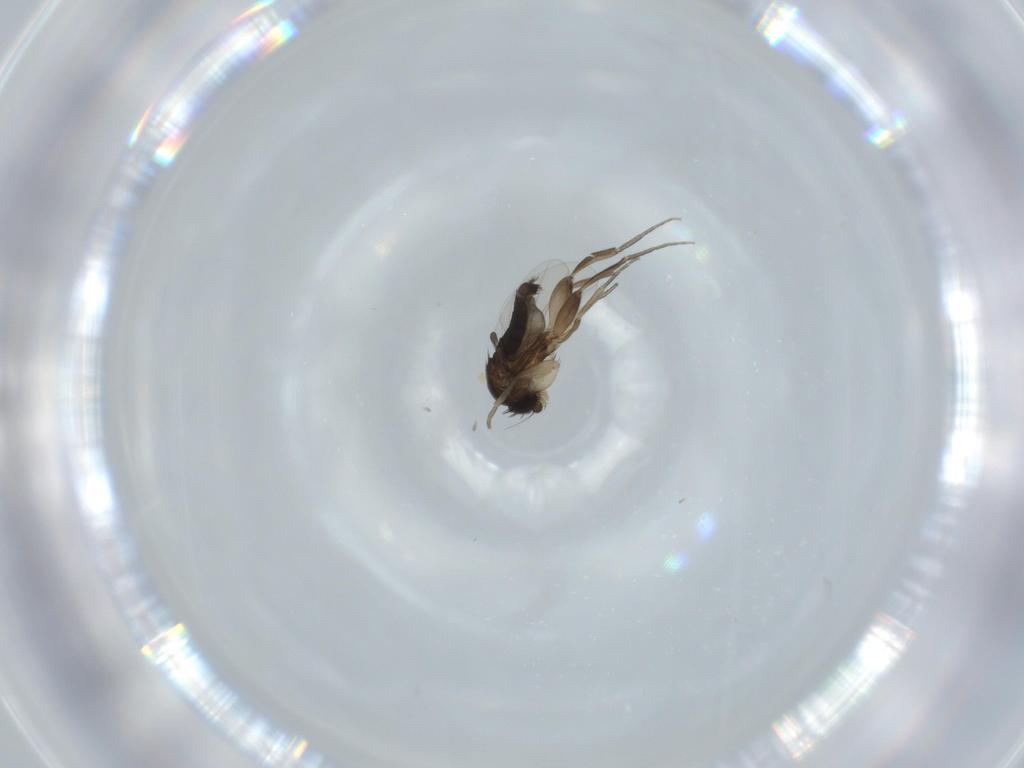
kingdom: Animalia
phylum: Arthropoda
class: Insecta
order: Diptera
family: Phoridae
